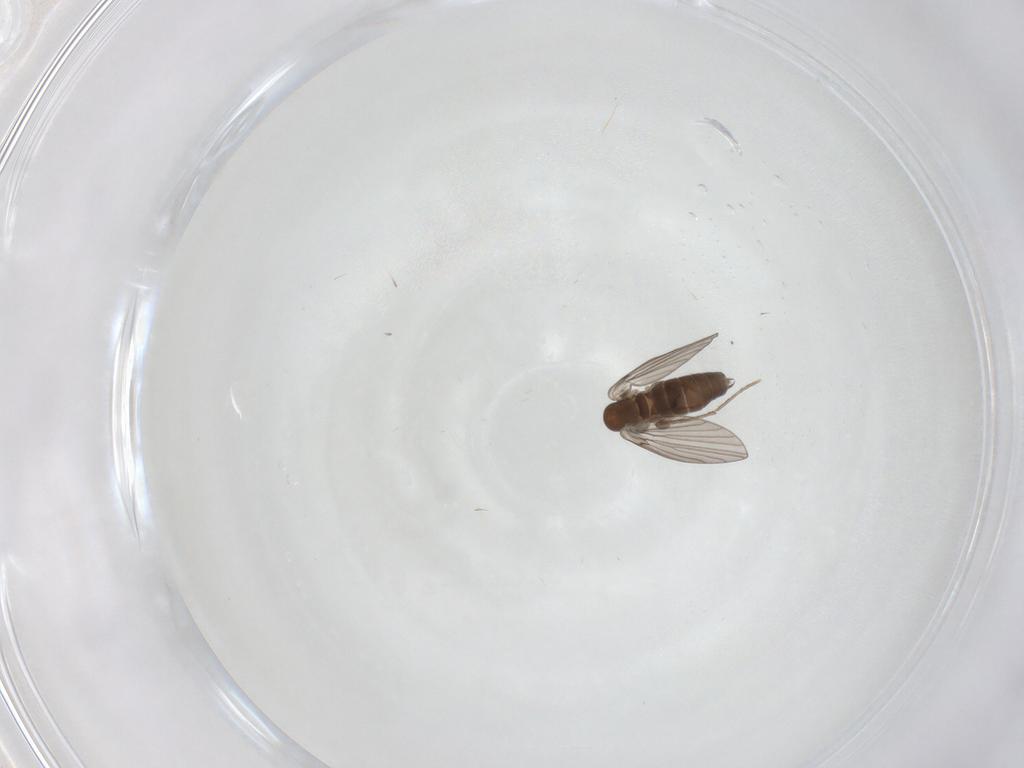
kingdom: Animalia
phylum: Arthropoda
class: Insecta
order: Diptera
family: Cecidomyiidae
